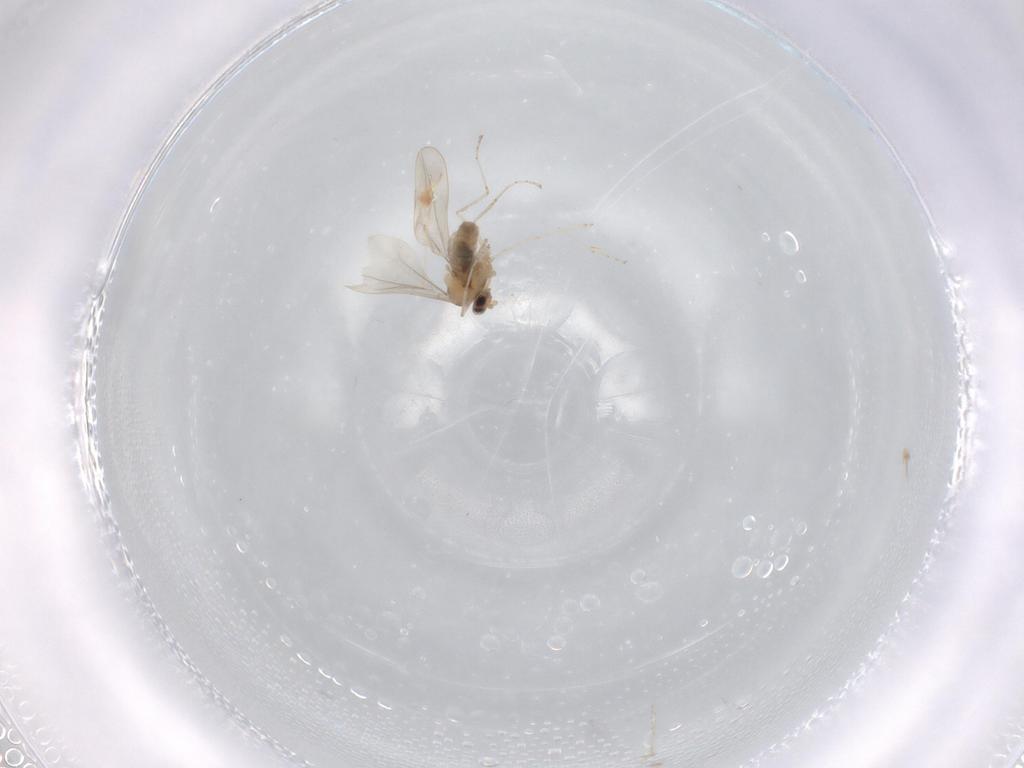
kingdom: Animalia
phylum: Arthropoda
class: Insecta
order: Diptera
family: Cecidomyiidae
